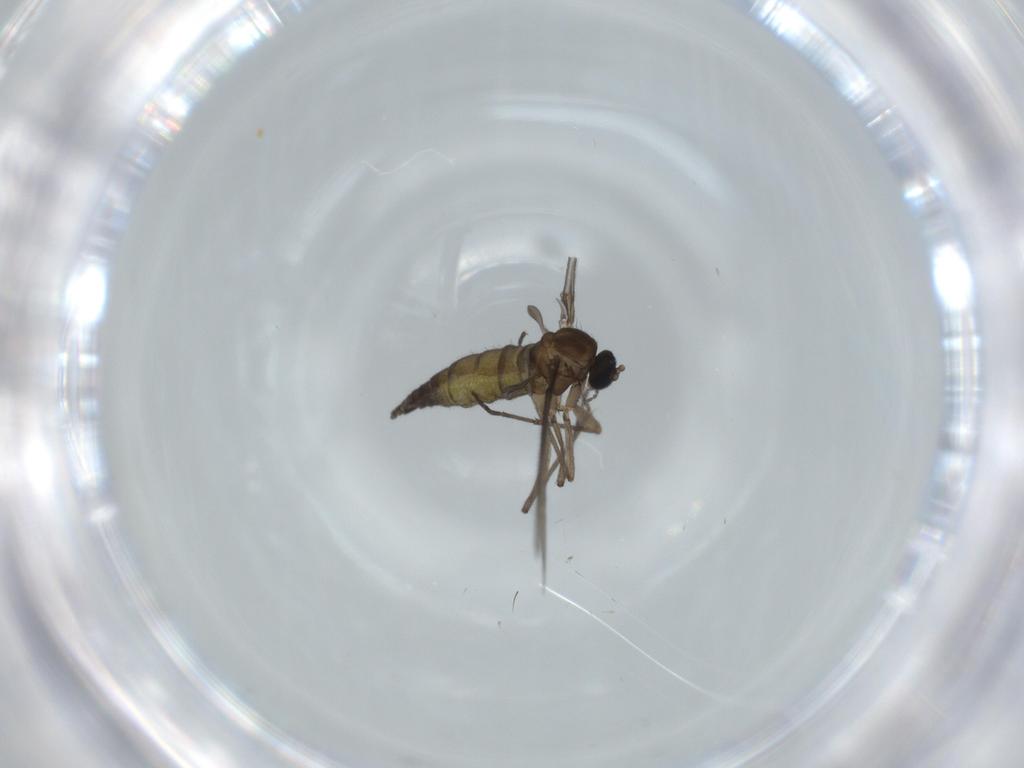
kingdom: Animalia
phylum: Arthropoda
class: Insecta
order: Diptera
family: Sciaridae
